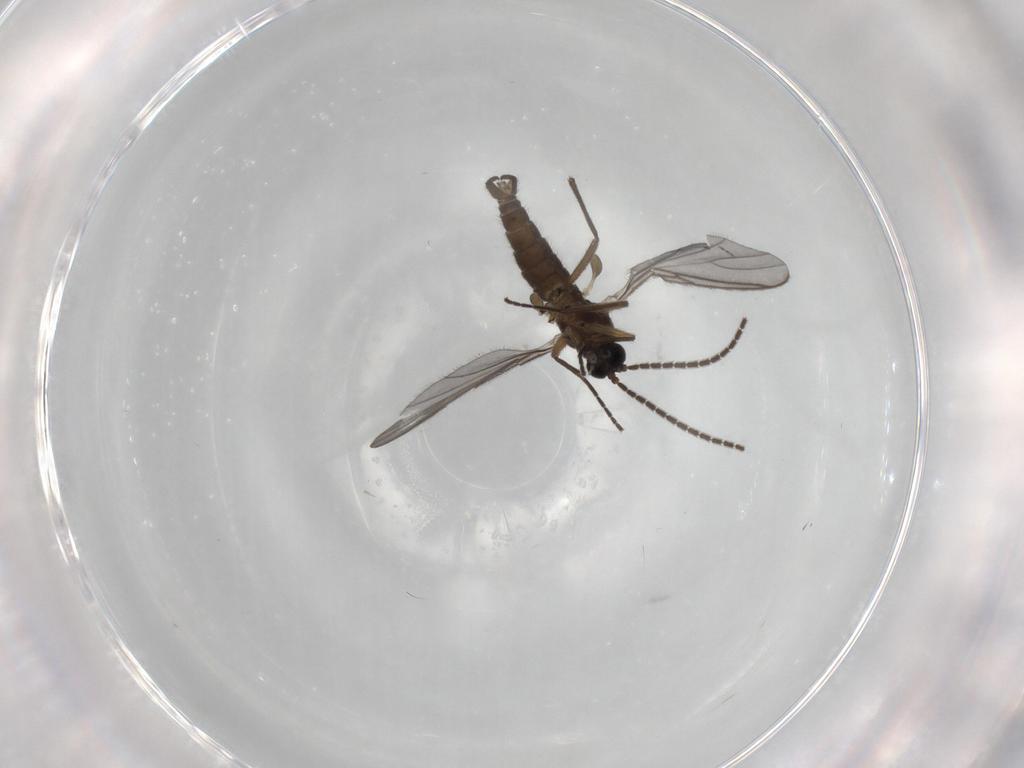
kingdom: Animalia
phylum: Arthropoda
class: Insecta
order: Diptera
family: Sciaridae
